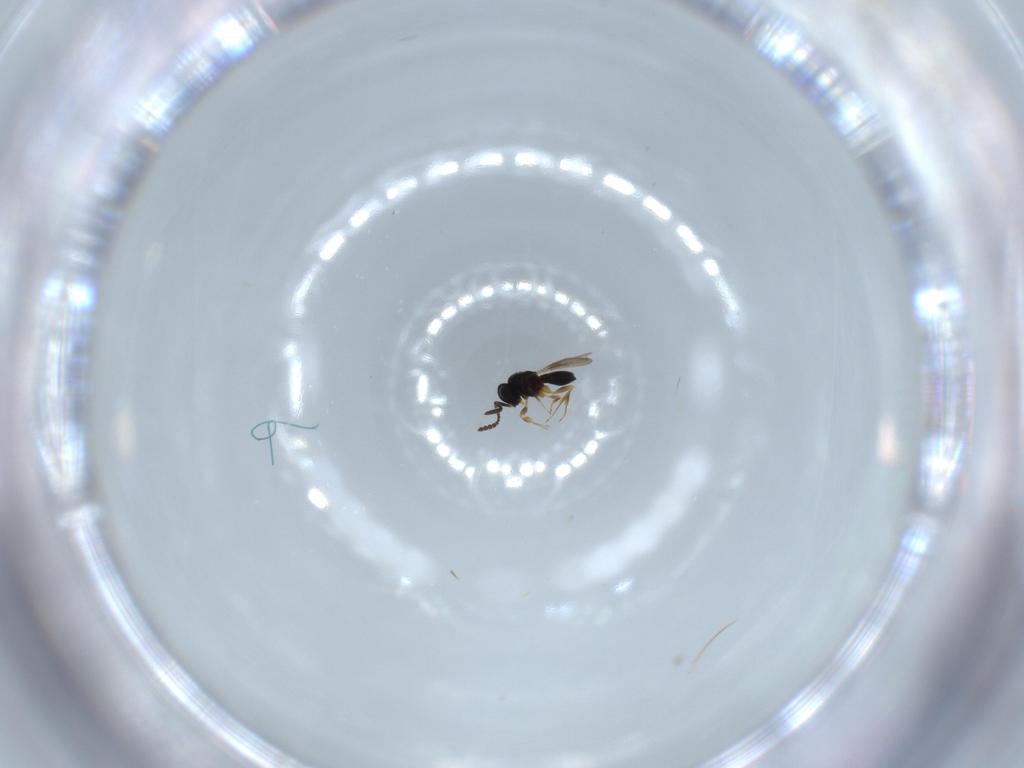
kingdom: Animalia
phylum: Arthropoda
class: Insecta
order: Hymenoptera
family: Scelionidae
